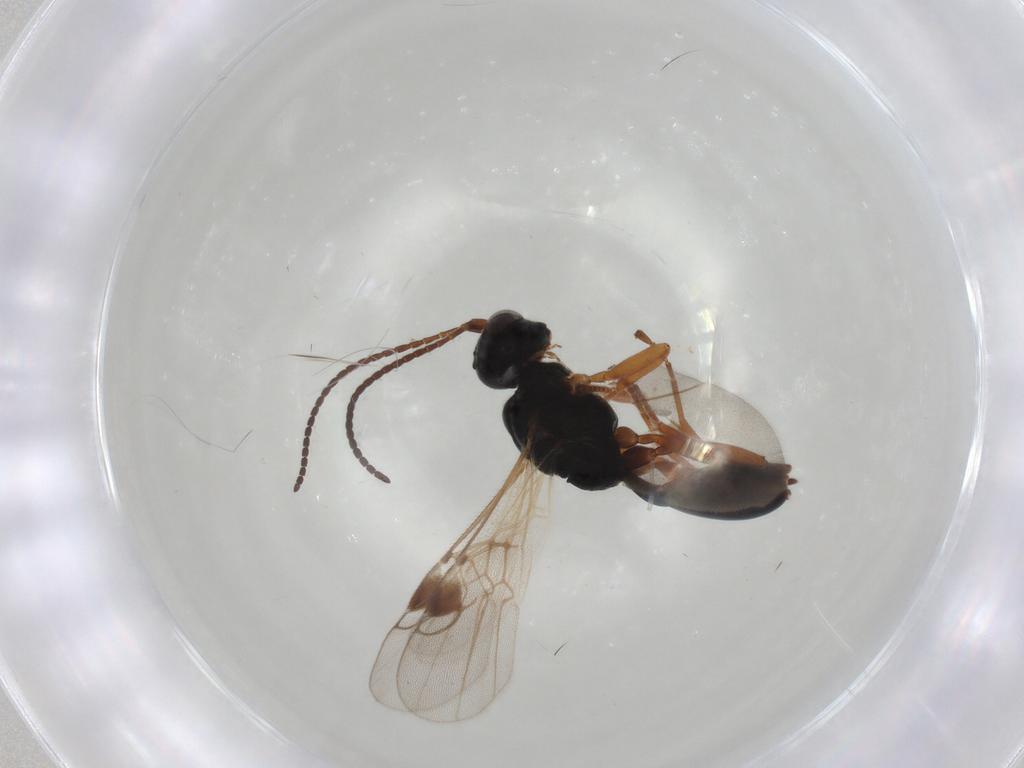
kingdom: Animalia
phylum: Arthropoda
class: Insecta
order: Hymenoptera
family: Braconidae
